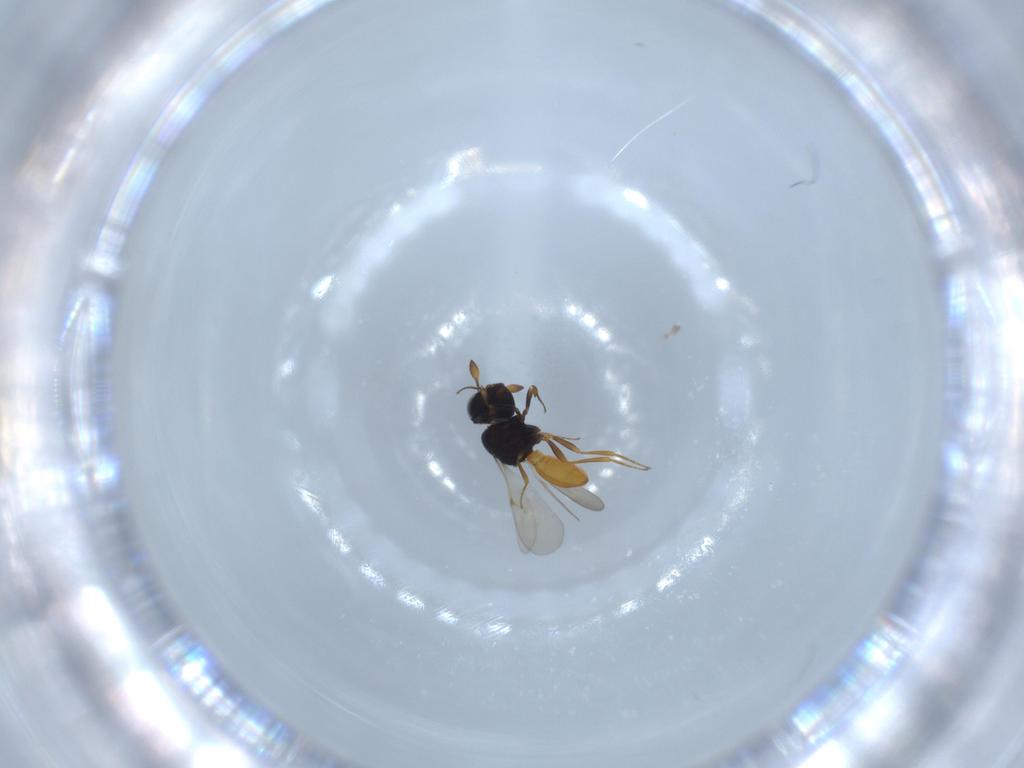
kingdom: Animalia
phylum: Arthropoda
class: Insecta
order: Hymenoptera
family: Scelionidae
